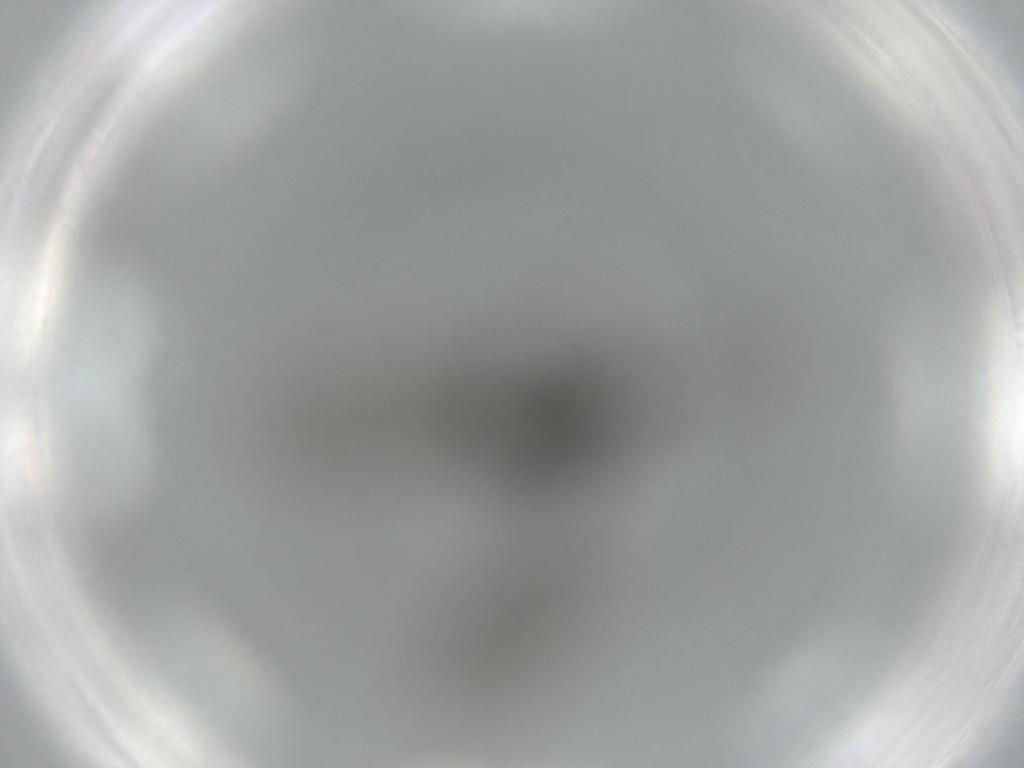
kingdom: Animalia
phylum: Arthropoda
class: Insecta
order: Diptera
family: Sciaridae
